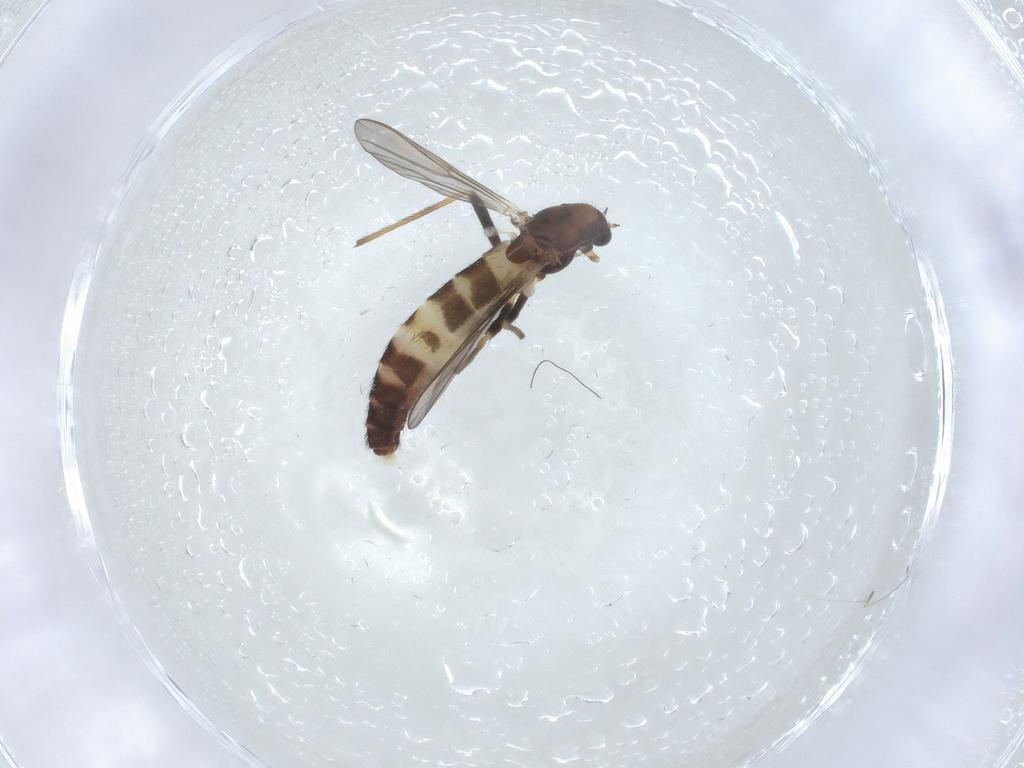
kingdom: Animalia
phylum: Arthropoda
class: Insecta
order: Diptera
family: Chironomidae
